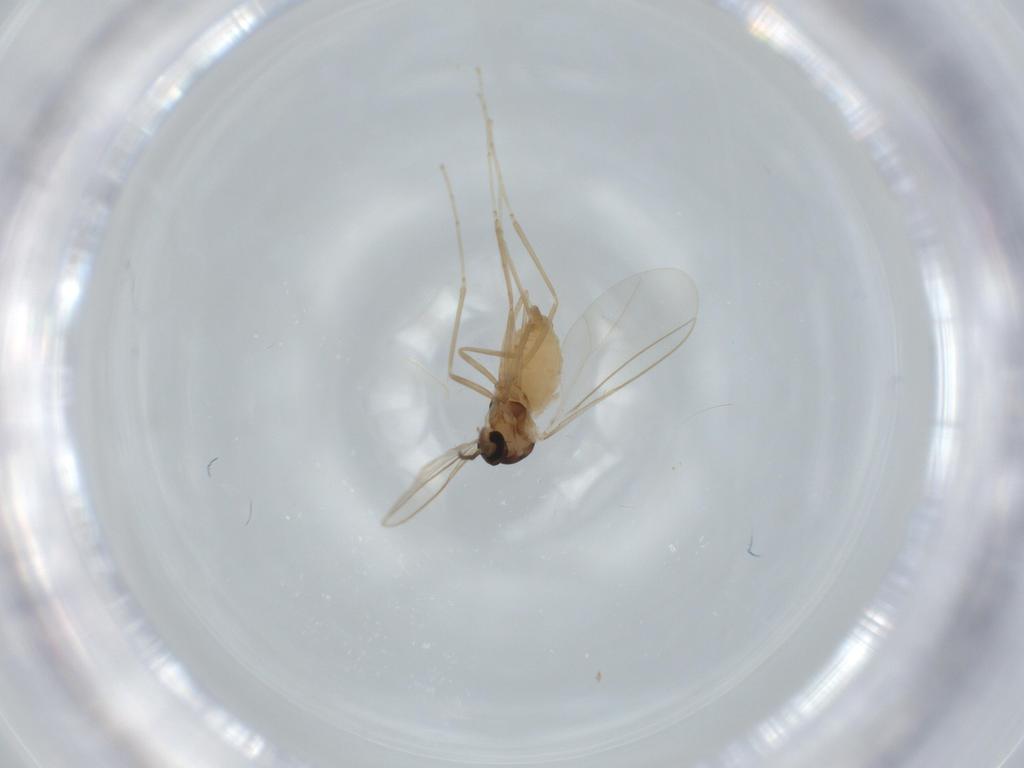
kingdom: Animalia
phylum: Arthropoda
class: Insecta
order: Diptera
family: Cecidomyiidae
